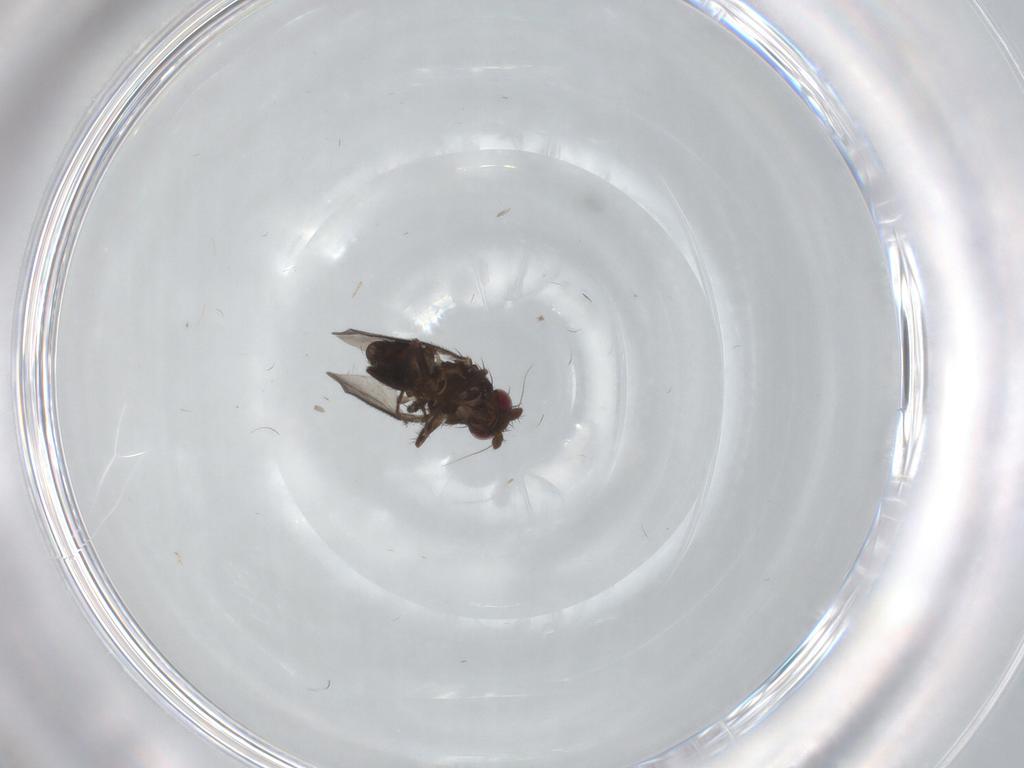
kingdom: Animalia
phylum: Arthropoda
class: Insecta
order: Diptera
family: Sphaeroceridae
